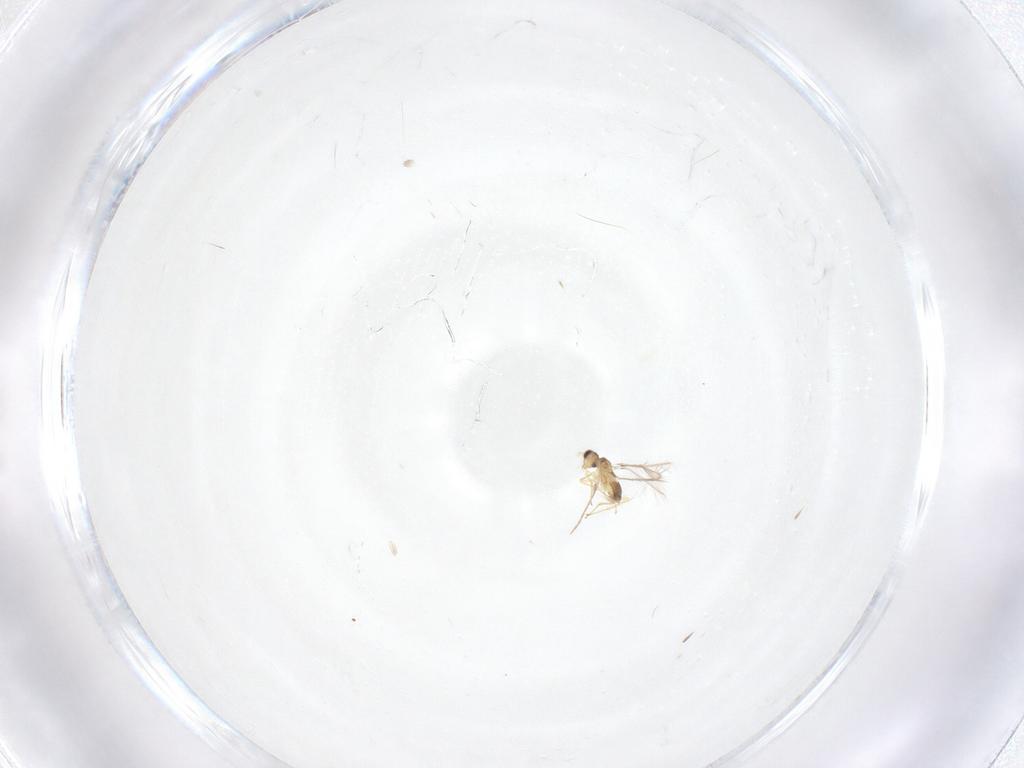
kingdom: Animalia
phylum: Arthropoda
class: Insecta
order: Hymenoptera
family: Mymaridae
